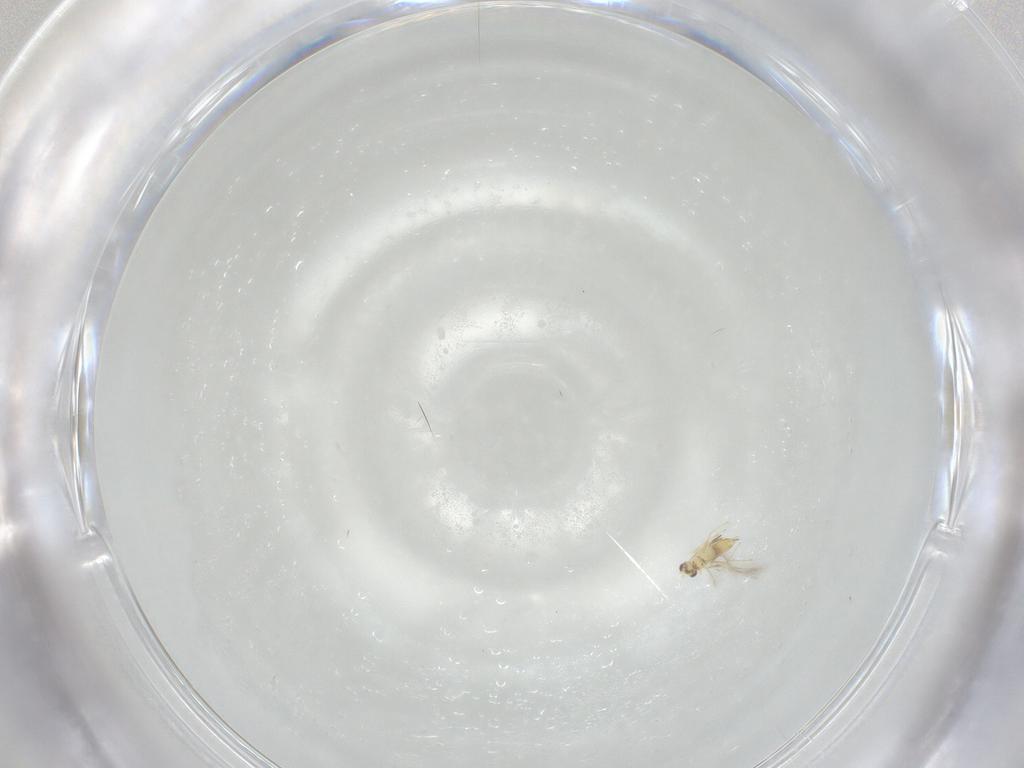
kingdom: Animalia
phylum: Arthropoda
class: Insecta
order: Hymenoptera
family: Mymaridae
